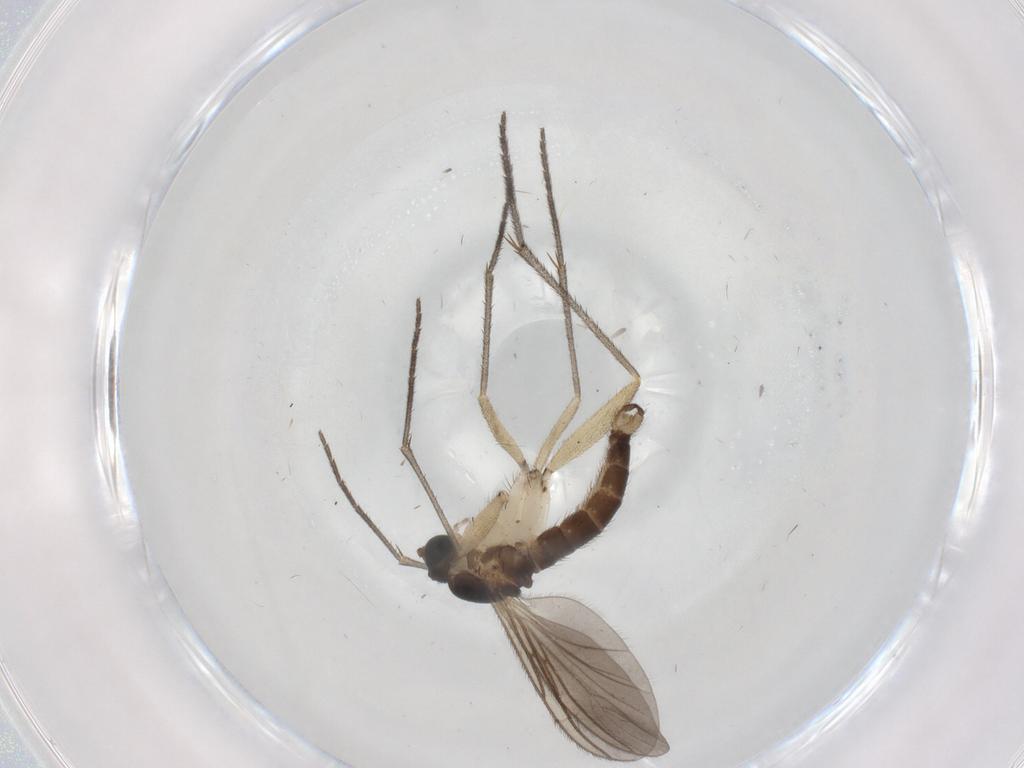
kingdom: Animalia
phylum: Arthropoda
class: Insecta
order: Diptera
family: Sciaridae
